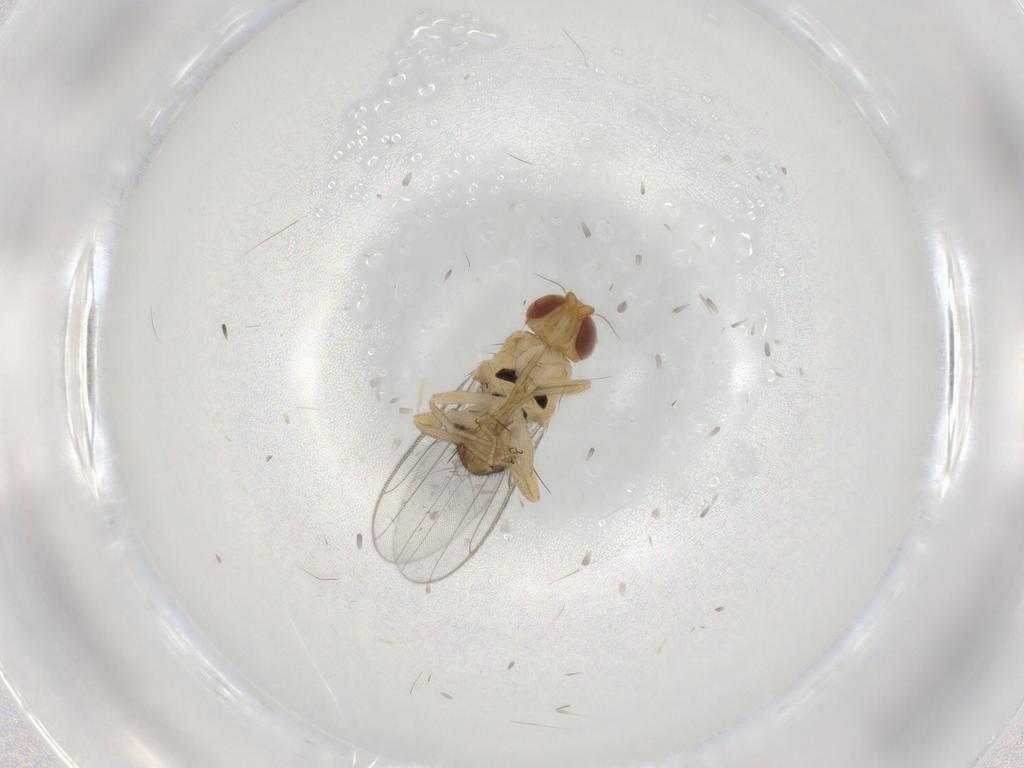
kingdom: Animalia
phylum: Arthropoda
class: Insecta
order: Diptera
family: Chloropidae
